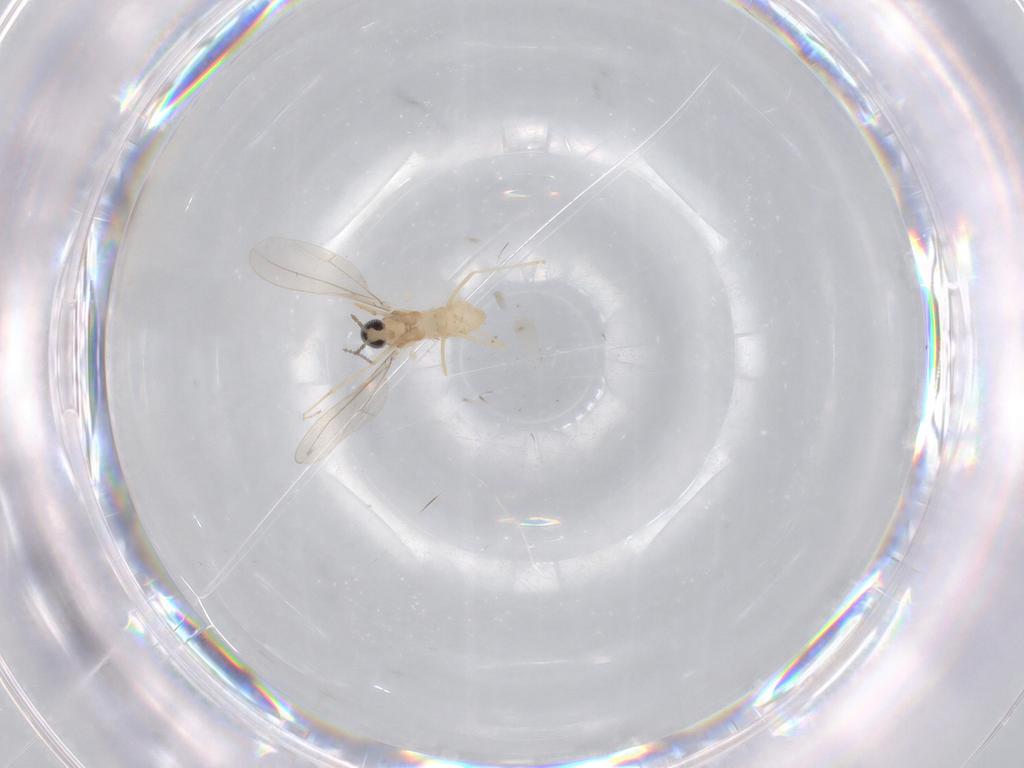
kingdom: Animalia
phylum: Arthropoda
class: Insecta
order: Diptera
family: Cecidomyiidae
